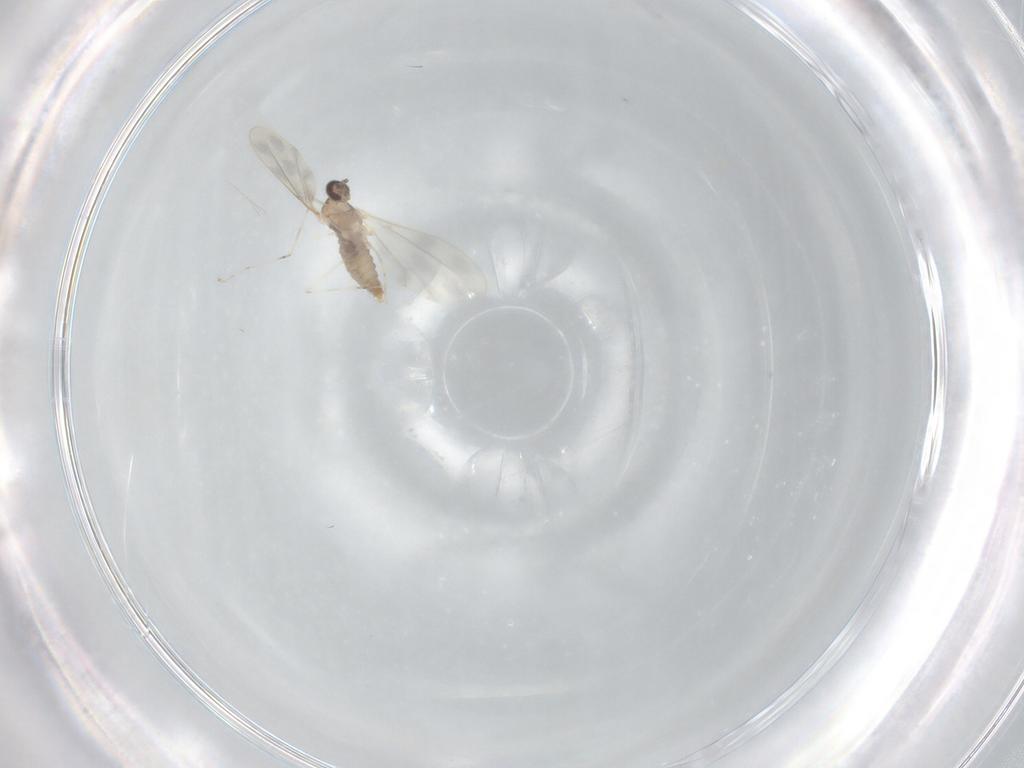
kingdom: Animalia
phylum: Arthropoda
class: Insecta
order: Diptera
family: Cecidomyiidae
